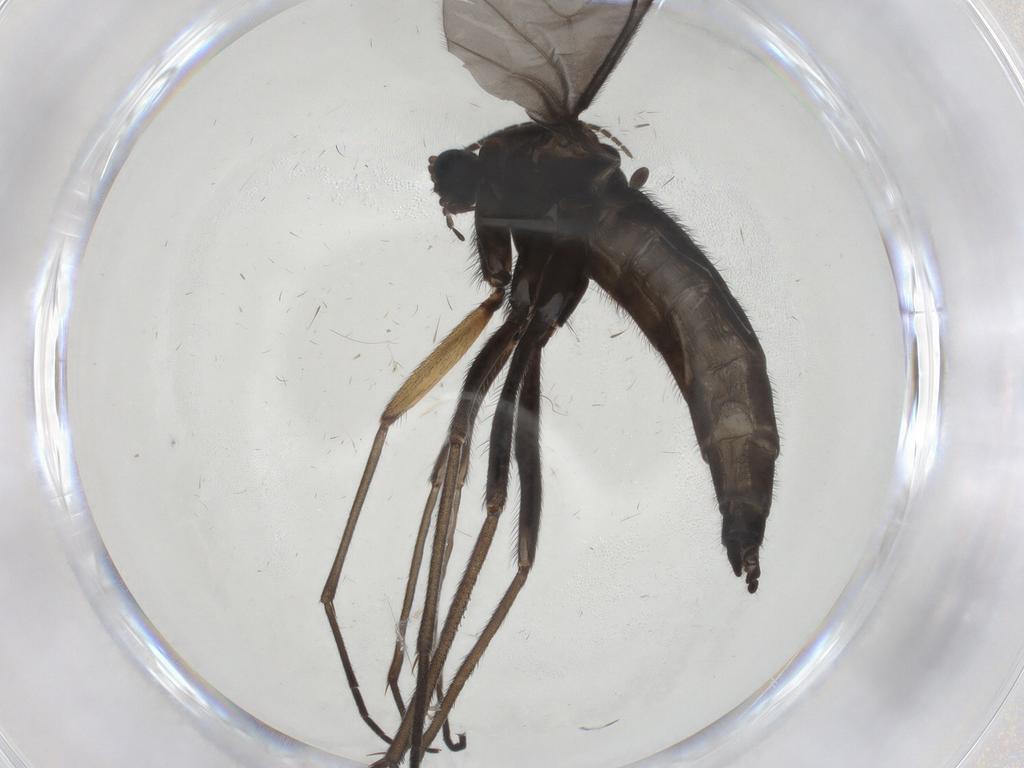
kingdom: Animalia
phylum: Arthropoda
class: Insecta
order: Diptera
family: Sciaridae
